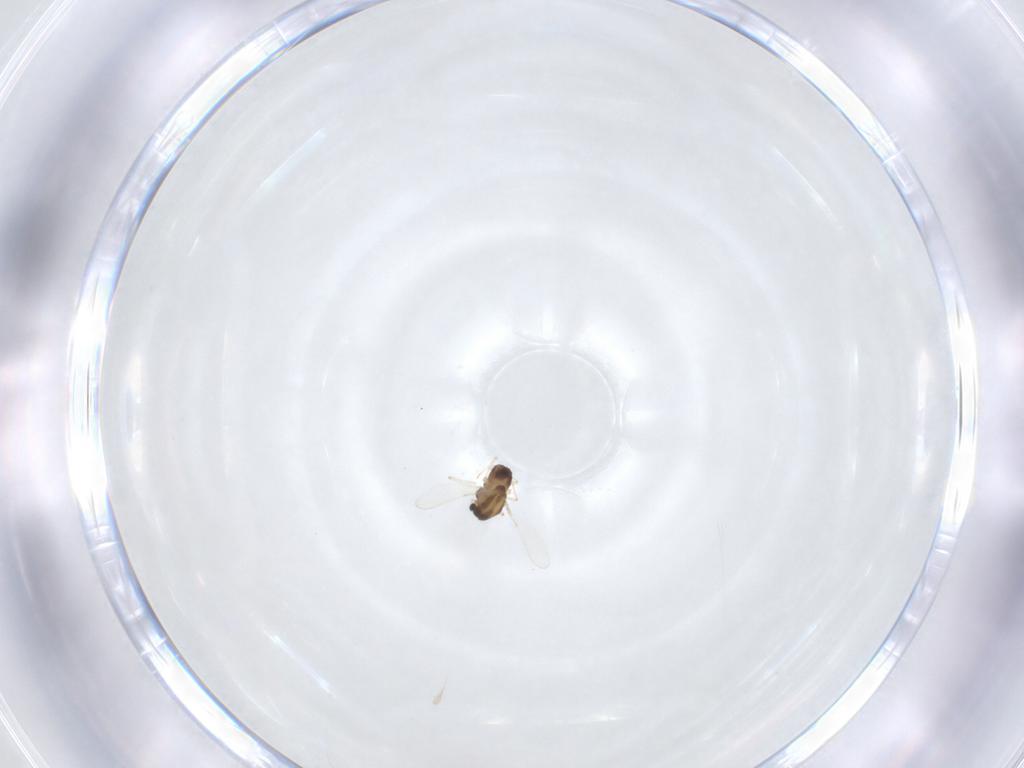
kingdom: Animalia
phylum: Arthropoda
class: Insecta
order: Diptera
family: Chironomidae
